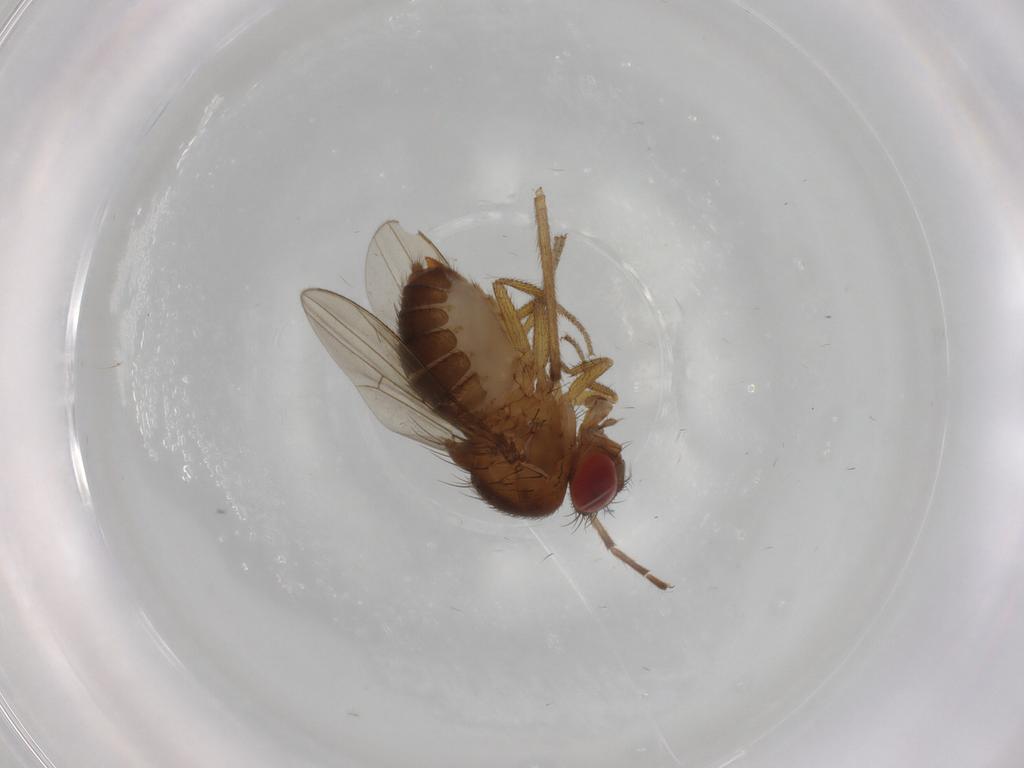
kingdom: Animalia
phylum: Arthropoda
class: Insecta
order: Diptera
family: Drosophilidae
